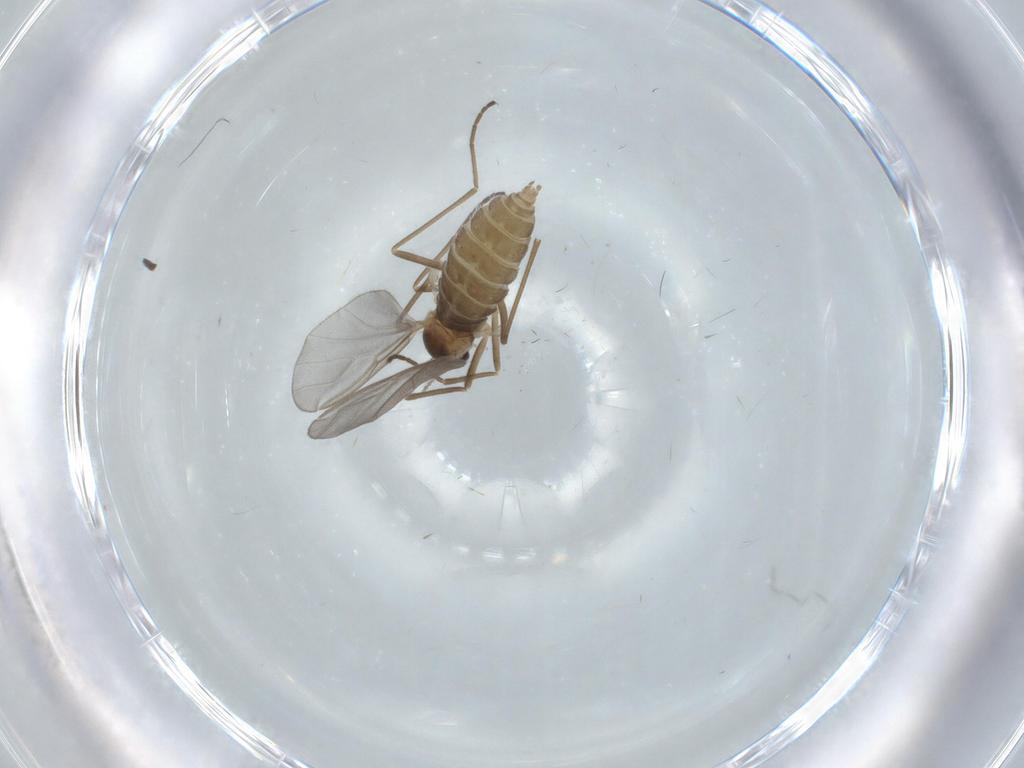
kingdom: Animalia
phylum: Arthropoda
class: Insecta
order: Diptera
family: Cecidomyiidae
